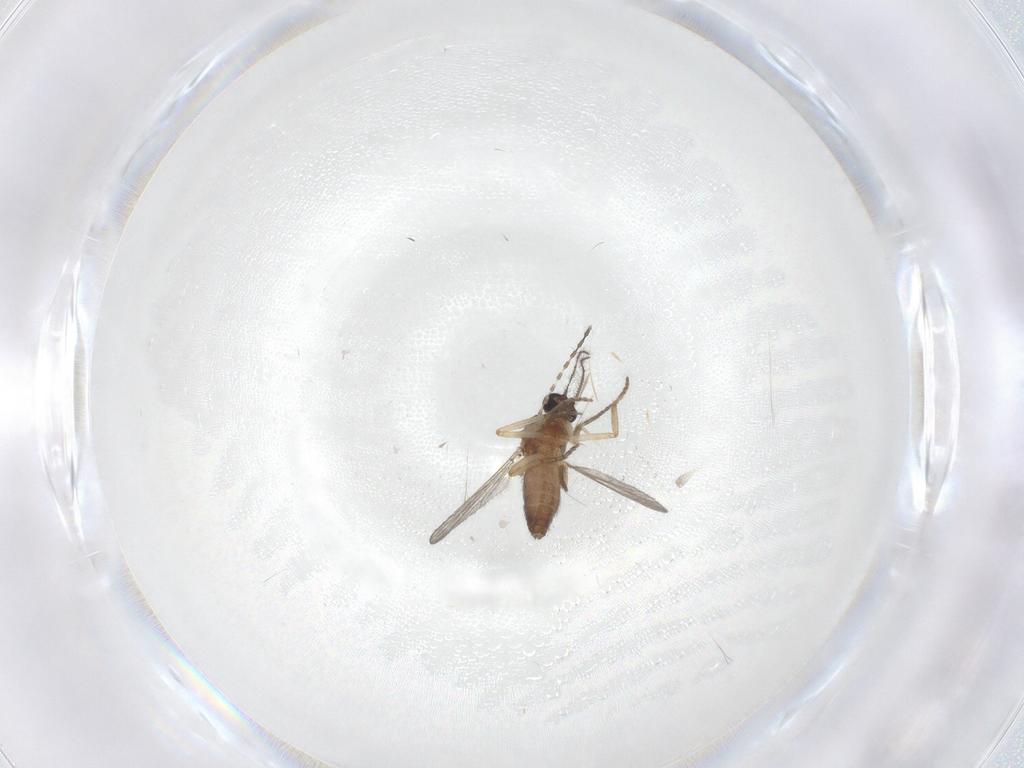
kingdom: Animalia
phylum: Arthropoda
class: Insecta
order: Diptera
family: Ceratopogonidae
